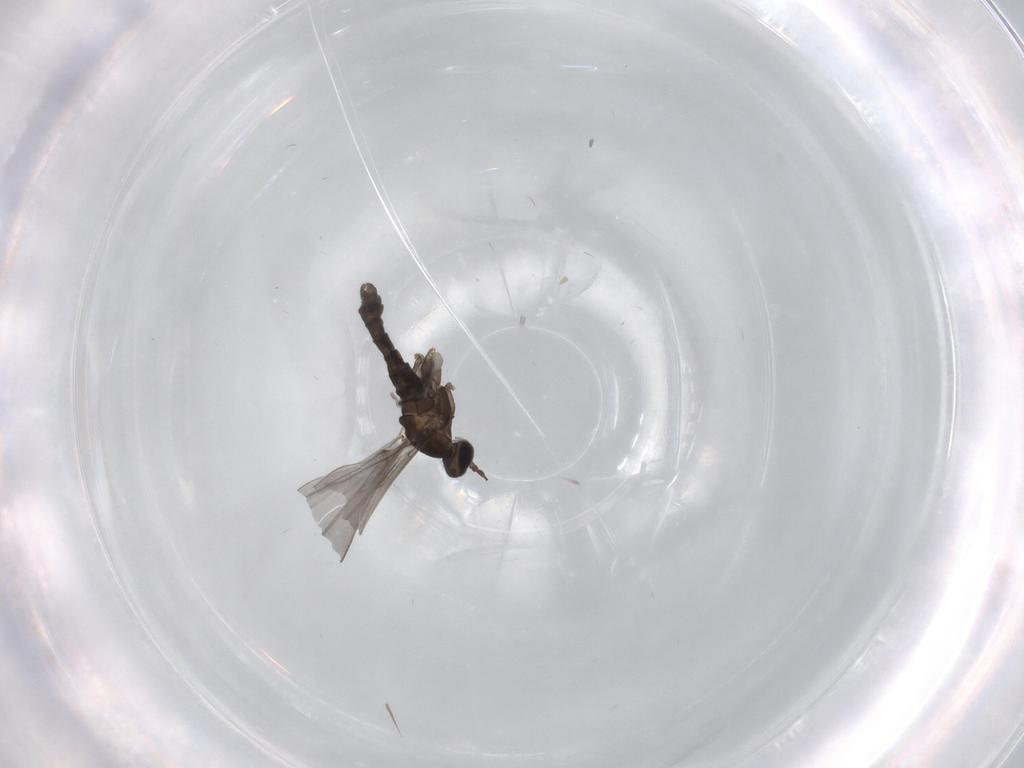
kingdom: Animalia
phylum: Arthropoda
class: Insecta
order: Diptera
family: Cecidomyiidae
